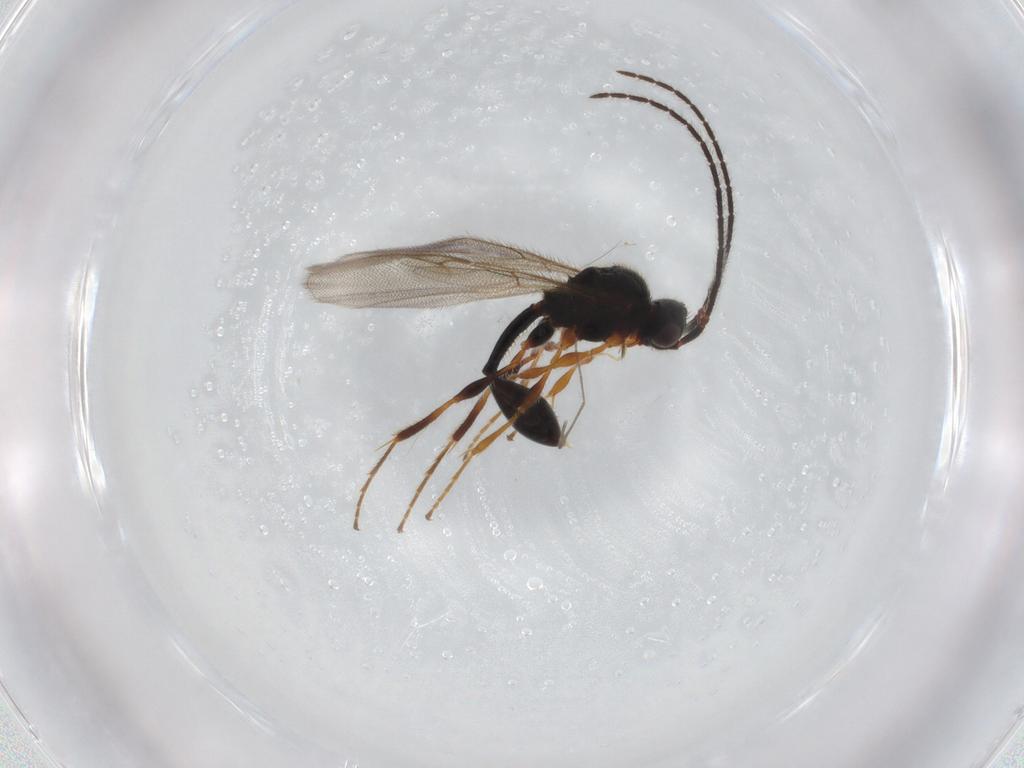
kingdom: Animalia
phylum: Arthropoda
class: Insecta
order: Hymenoptera
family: Diapriidae
